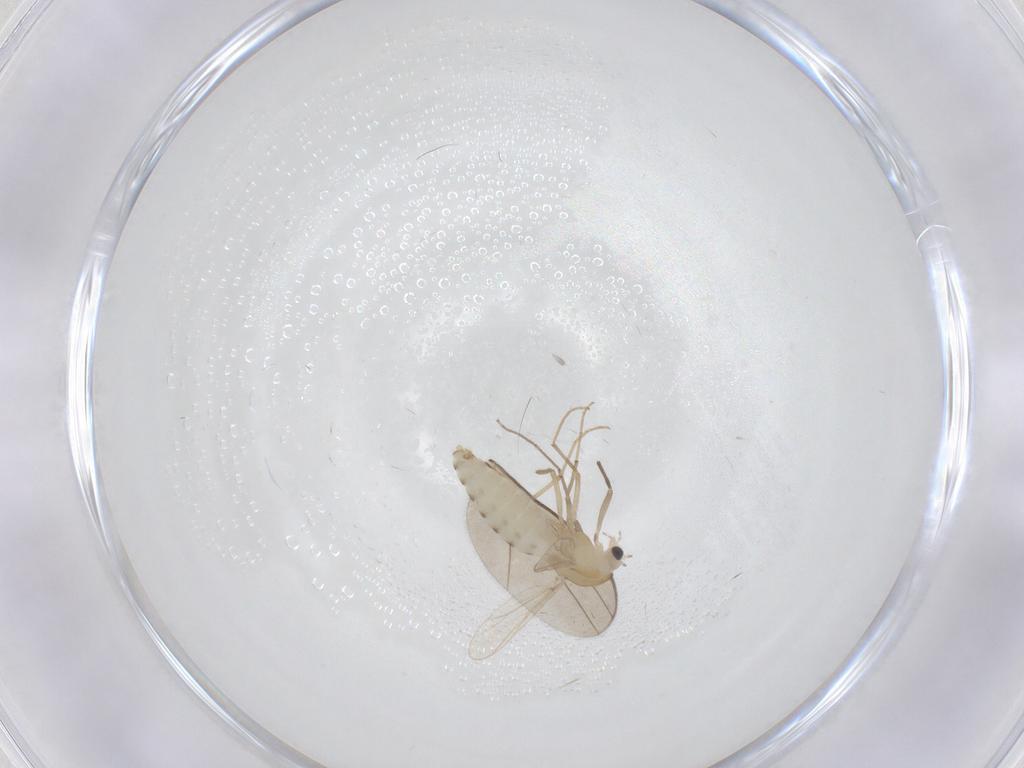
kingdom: Animalia
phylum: Arthropoda
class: Insecta
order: Diptera
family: Chironomidae
